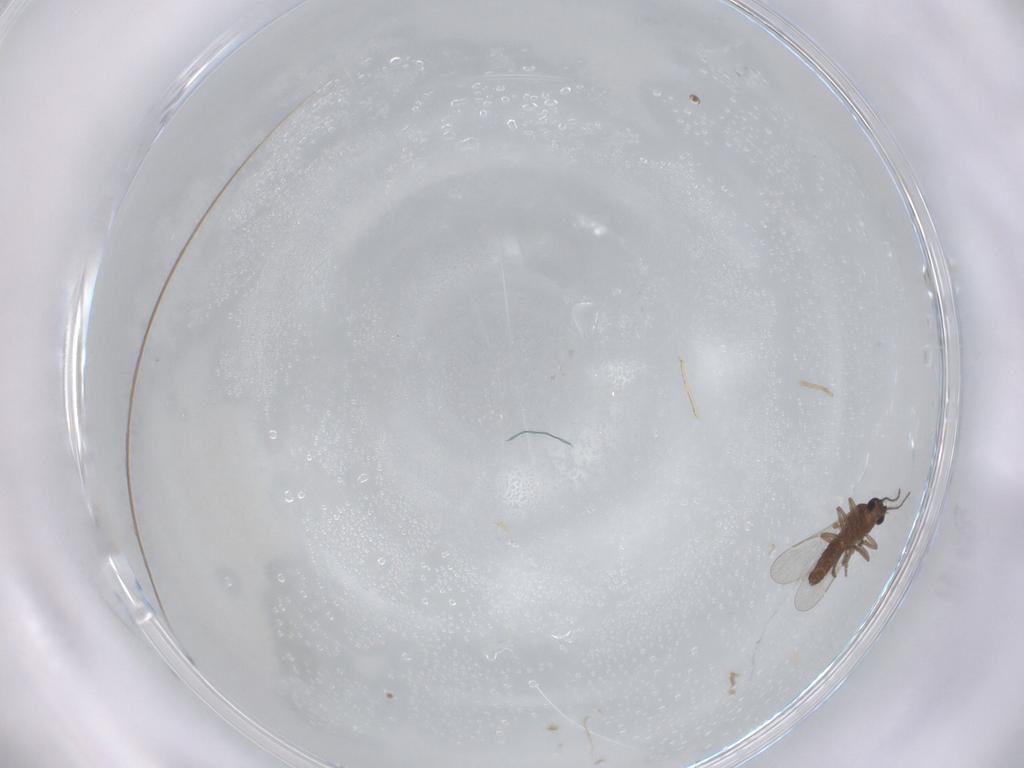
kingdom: Animalia
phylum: Arthropoda
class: Insecta
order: Diptera
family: Ceratopogonidae
